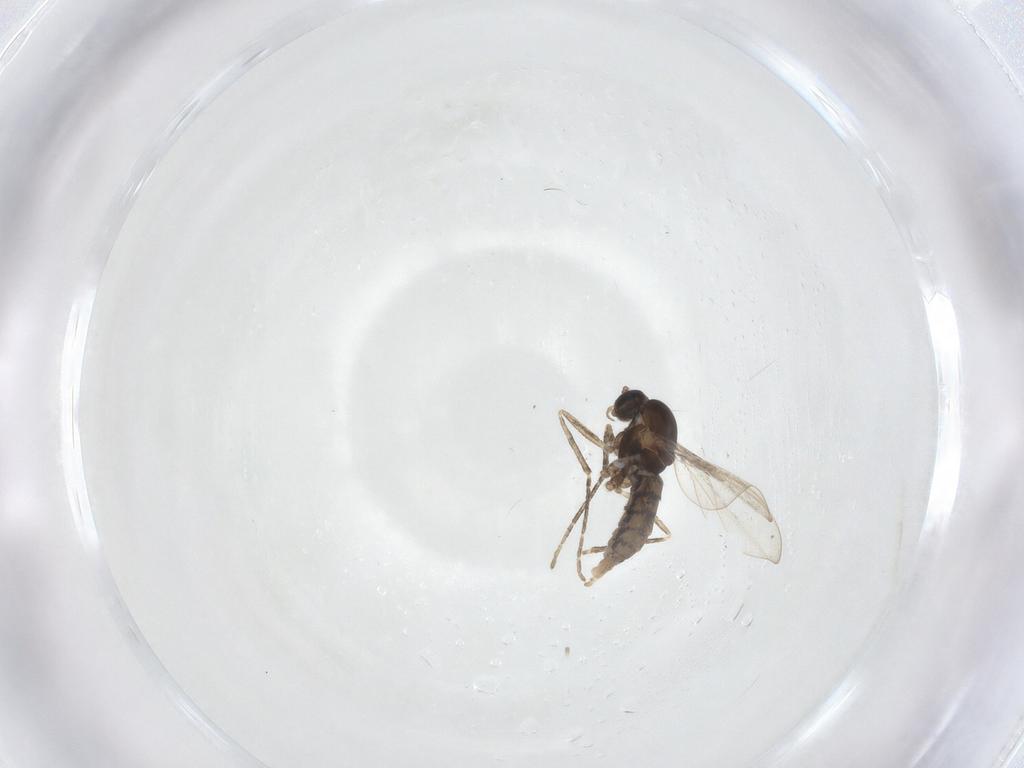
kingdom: Animalia
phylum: Arthropoda
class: Insecta
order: Diptera
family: Cecidomyiidae
